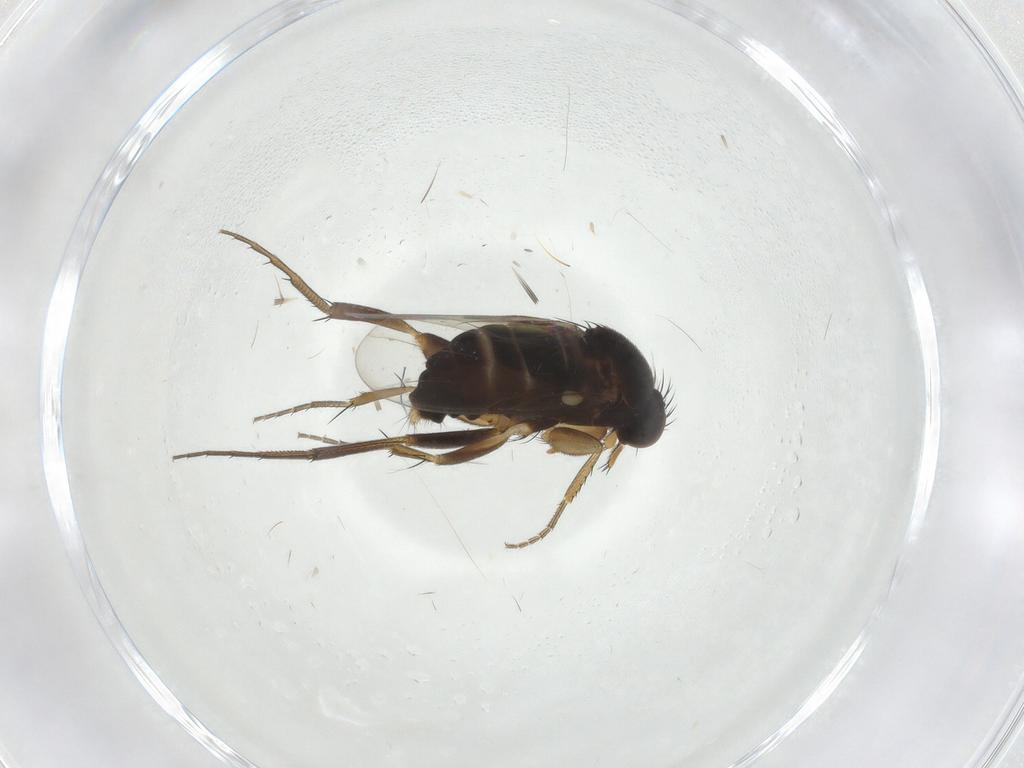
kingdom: Animalia
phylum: Arthropoda
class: Insecta
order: Diptera
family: Phoridae
